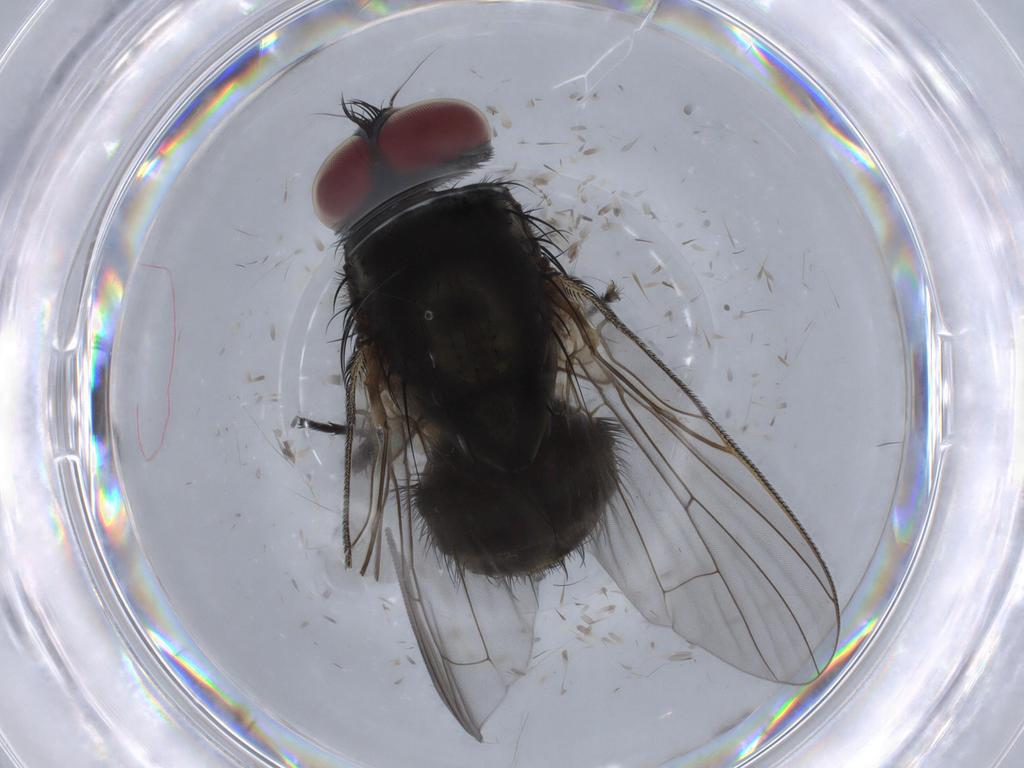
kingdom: Animalia
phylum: Arthropoda
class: Insecta
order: Diptera
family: Muscidae
